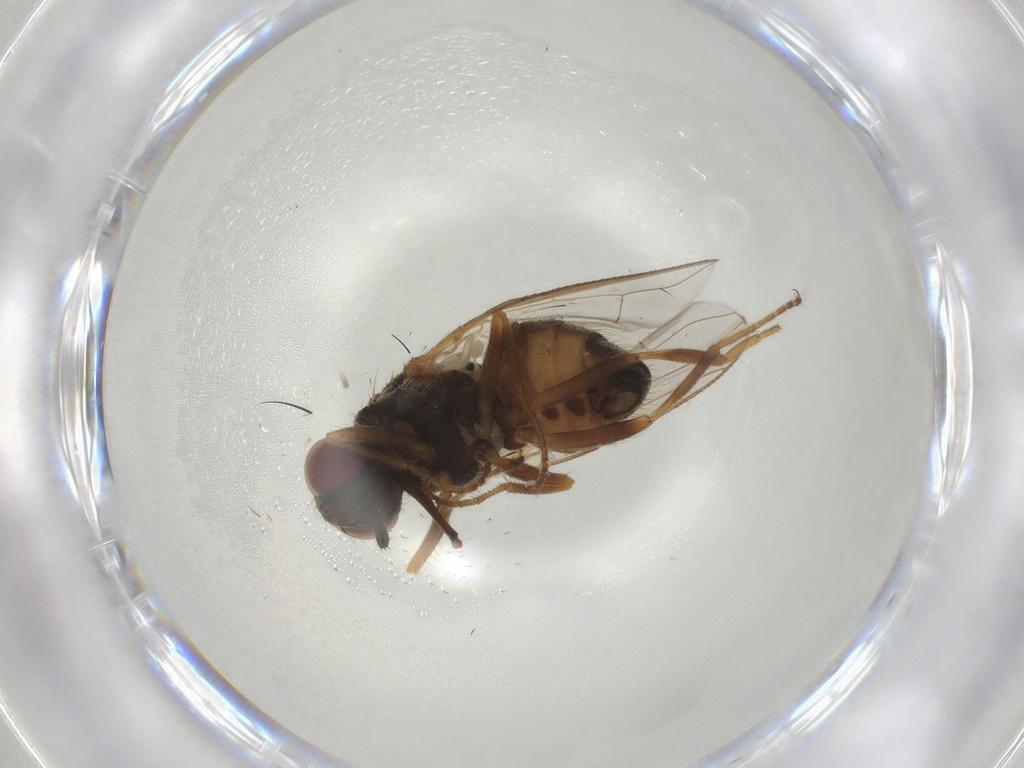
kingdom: Animalia
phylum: Arthropoda
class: Insecta
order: Diptera
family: Muscidae
